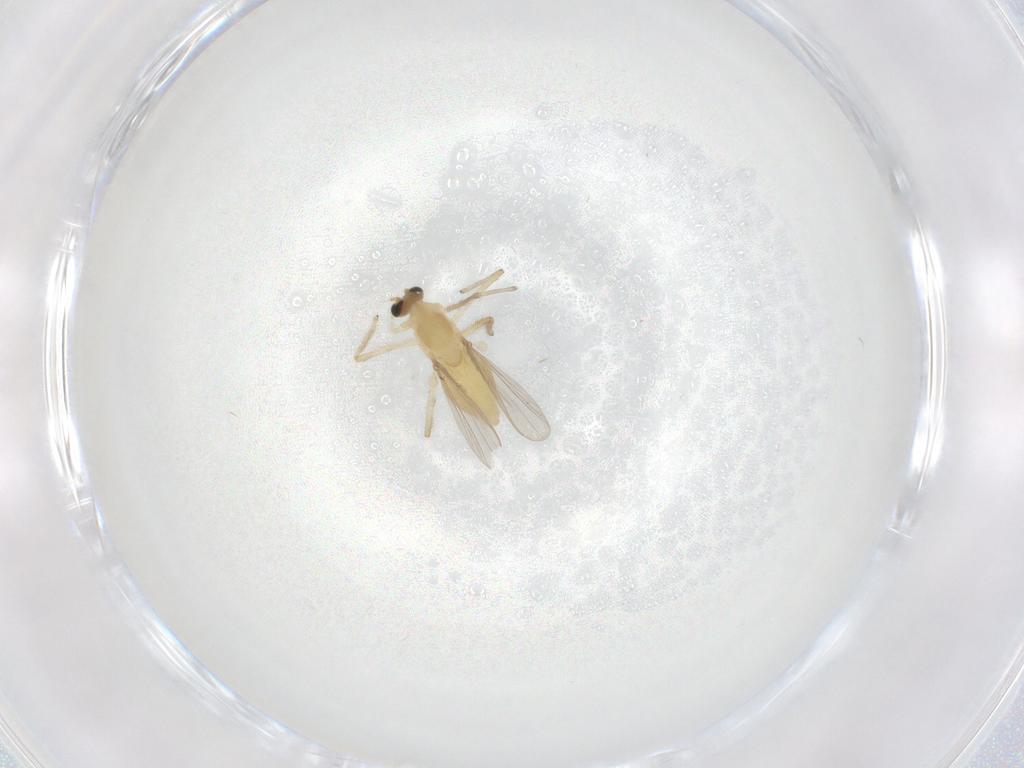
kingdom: Animalia
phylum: Arthropoda
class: Insecta
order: Diptera
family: Chironomidae
